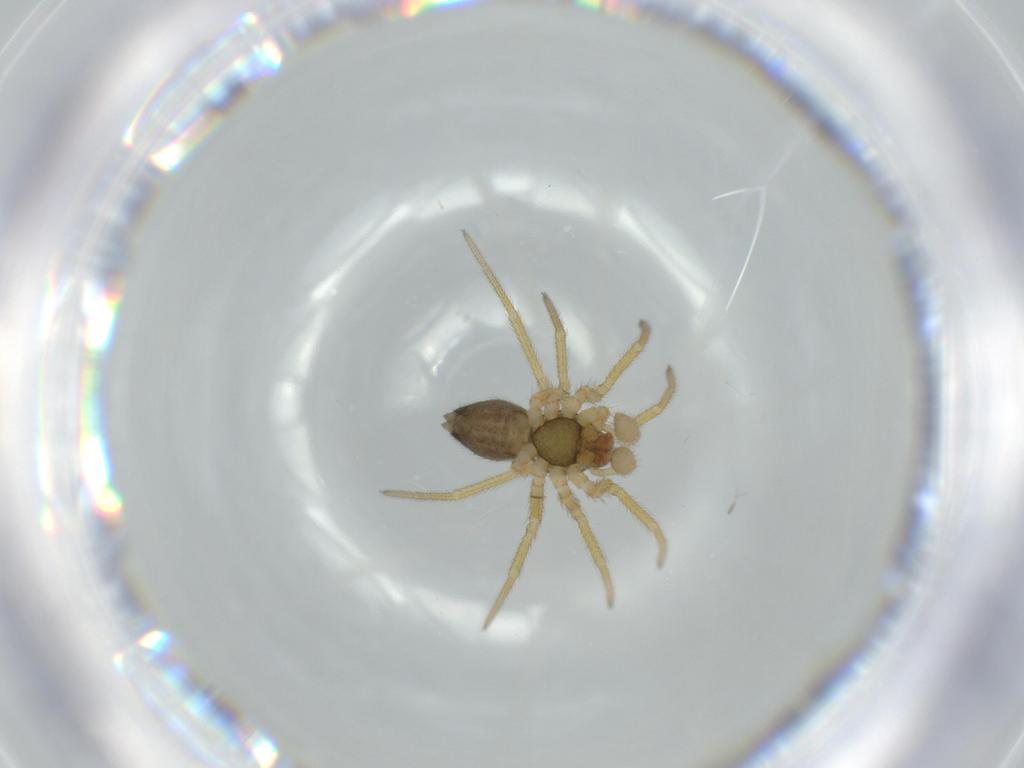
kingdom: Animalia
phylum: Arthropoda
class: Arachnida
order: Araneae
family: Linyphiidae
